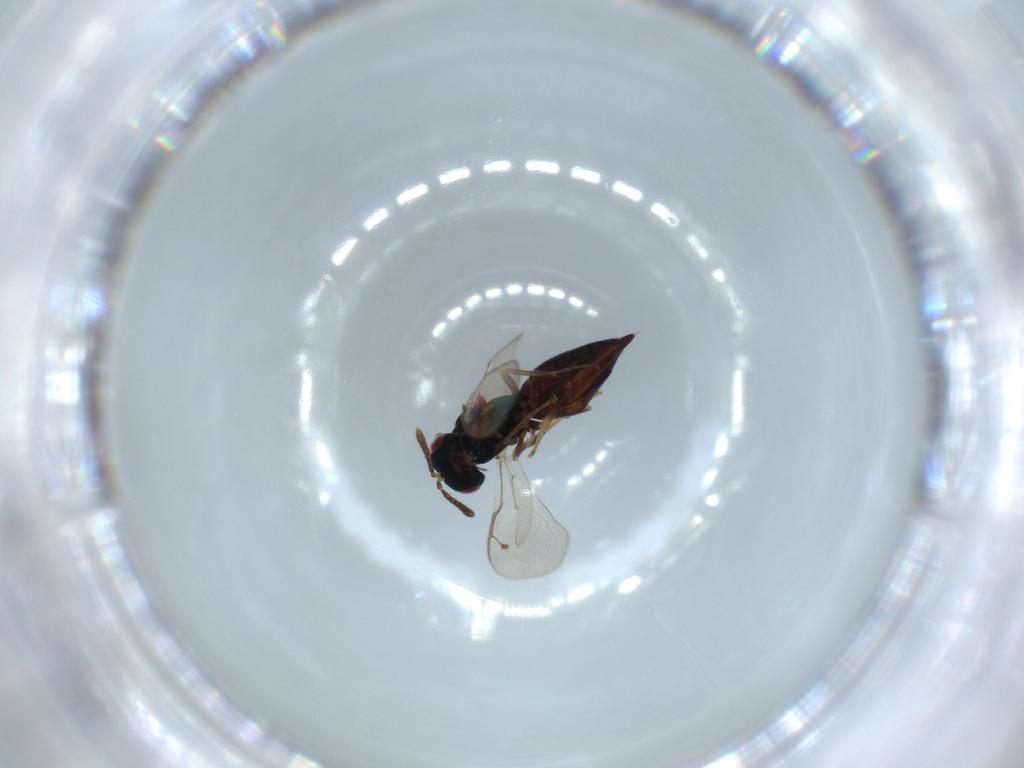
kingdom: Animalia
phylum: Arthropoda
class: Insecta
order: Hymenoptera
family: Pteromalidae
